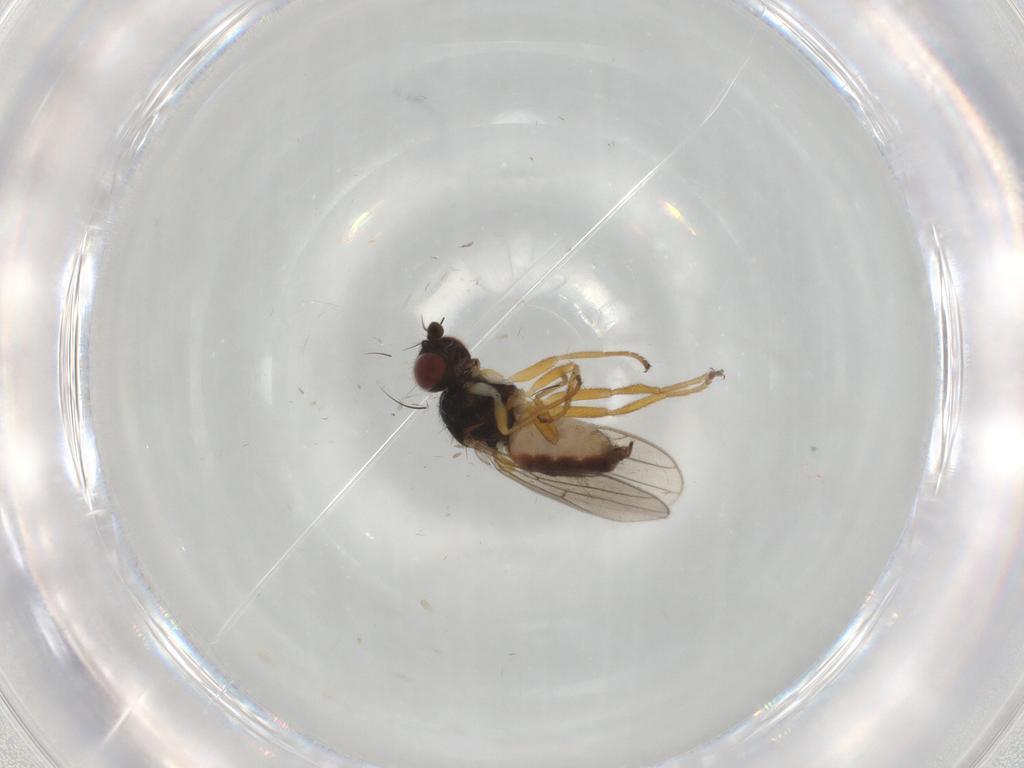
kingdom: Animalia
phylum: Arthropoda
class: Insecta
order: Diptera
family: Chloropidae
